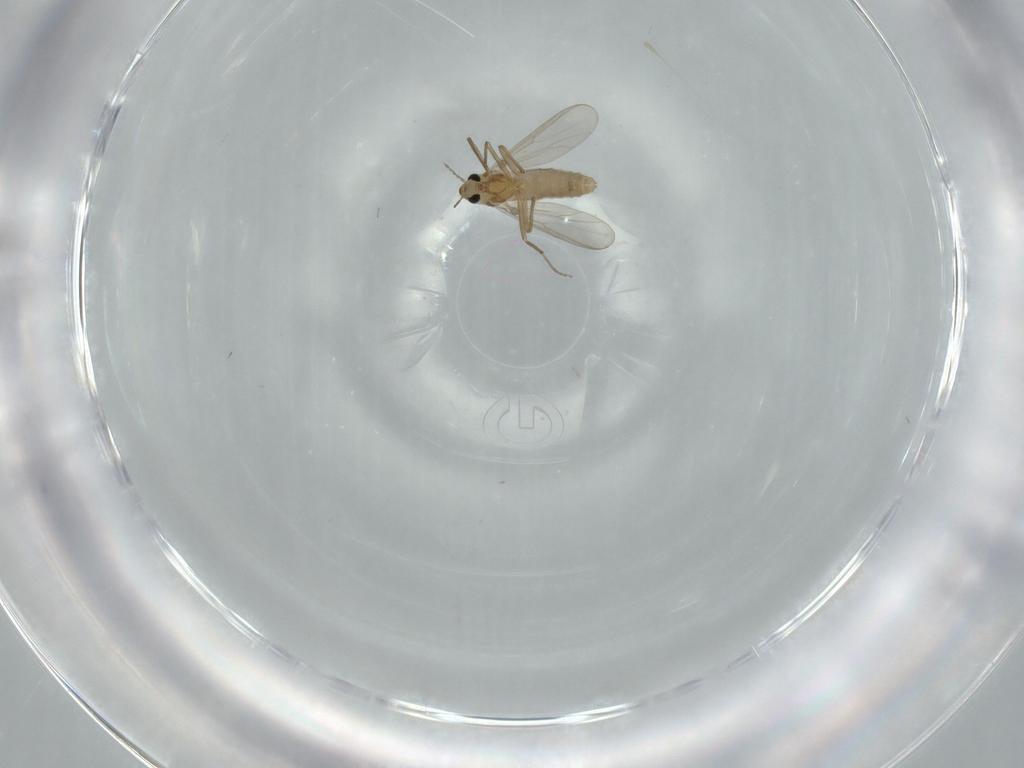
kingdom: Animalia
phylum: Arthropoda
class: Insecta
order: Diptera
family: Chironomidae
